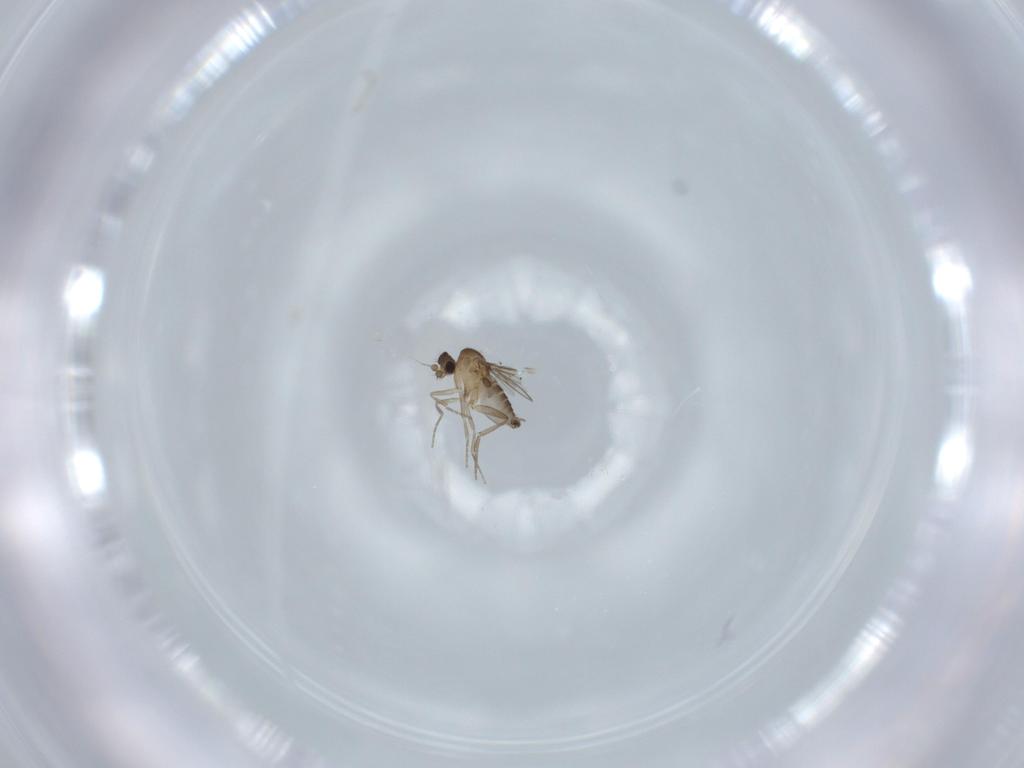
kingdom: Animalia
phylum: Arthropoda
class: Insecta
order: Diptera
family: Phoridae
